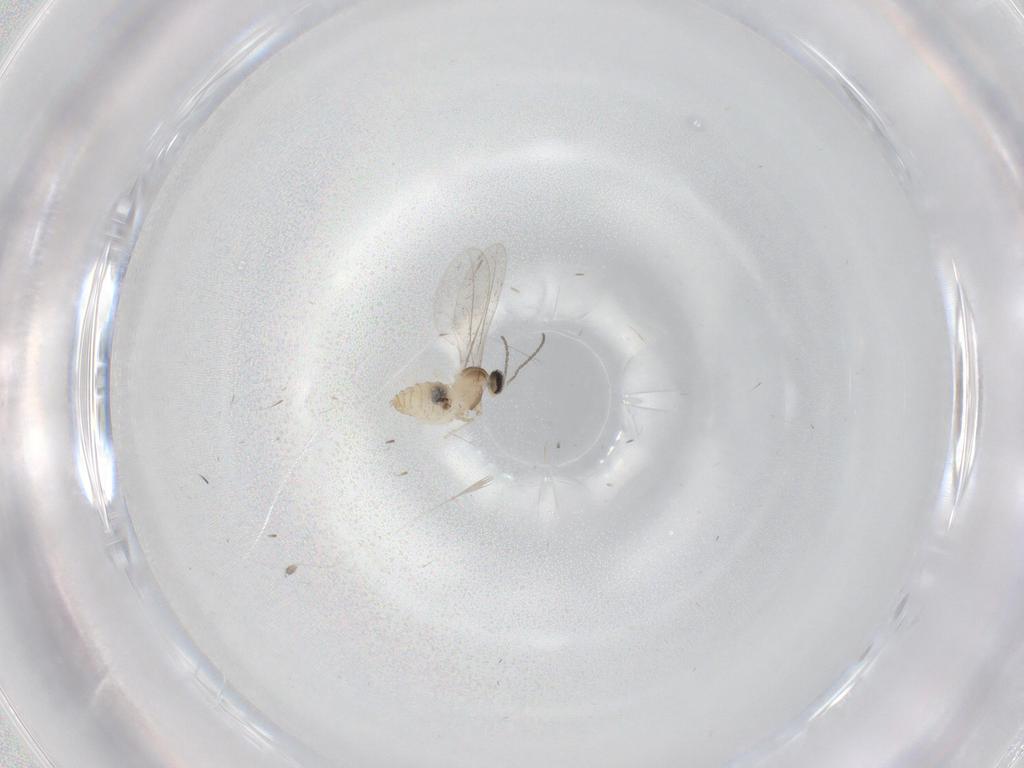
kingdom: Animalia
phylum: Arthropoda
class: Insecta
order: Diptera
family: Cecidomyiidae
